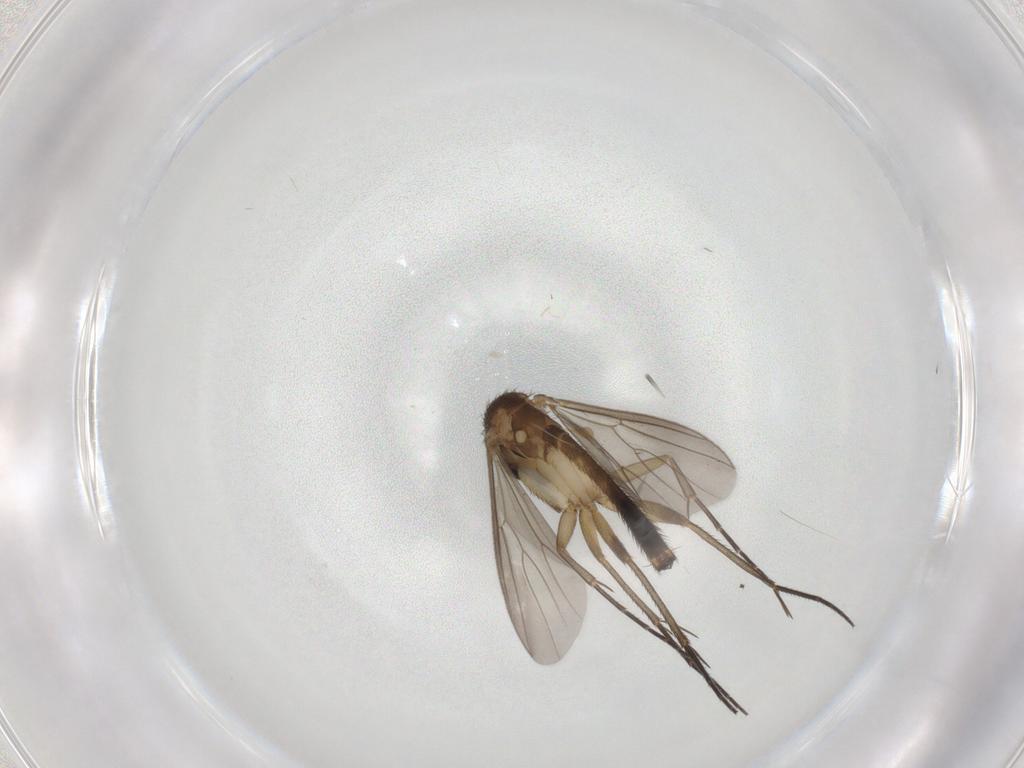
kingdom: Animalia
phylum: Arthropoda
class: Insecta
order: Diptera
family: Mycetophilidae
